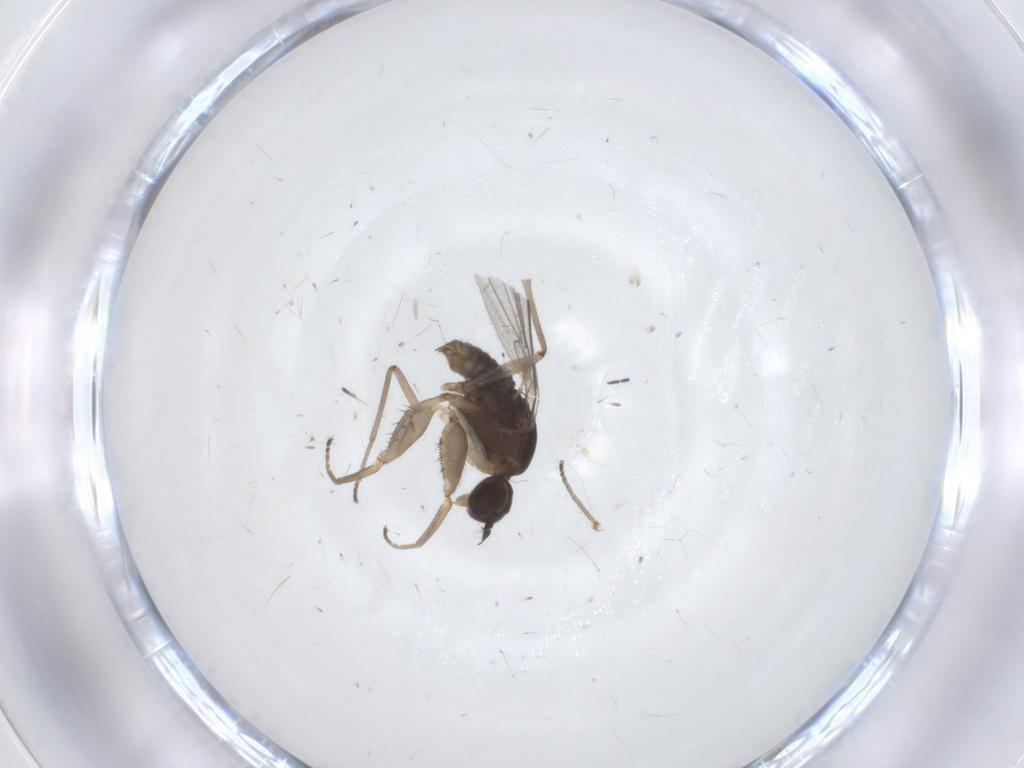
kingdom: Animalia
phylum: Arthropoda
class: Insecta
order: Diptera
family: Empididae
